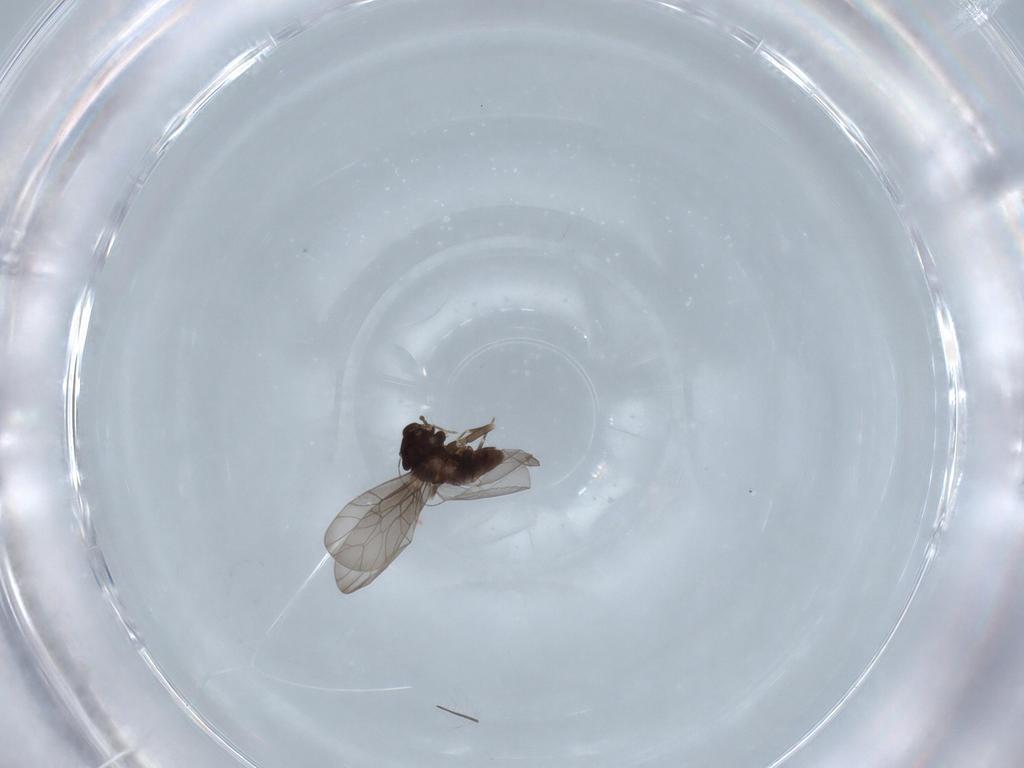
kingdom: Animalia
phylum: Arthropoda
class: Insecta
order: Psocodea
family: Lepidopsocidae
